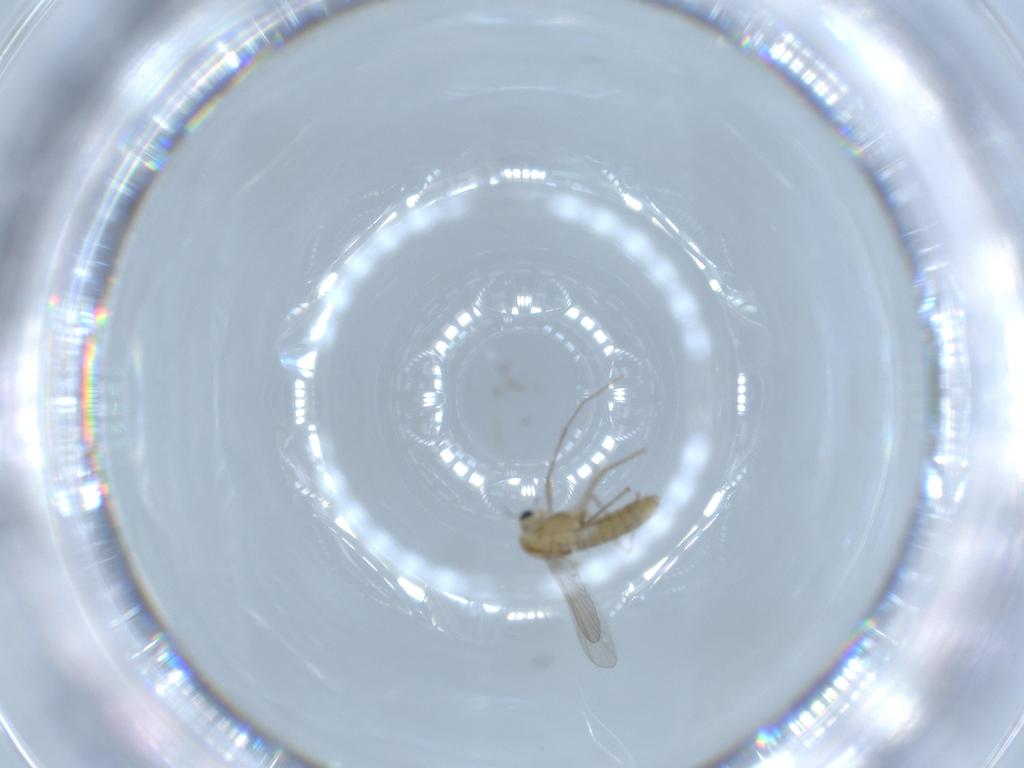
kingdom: Animalia
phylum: Arthropoda
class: Insecta
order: Diptera
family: Chironomidae
